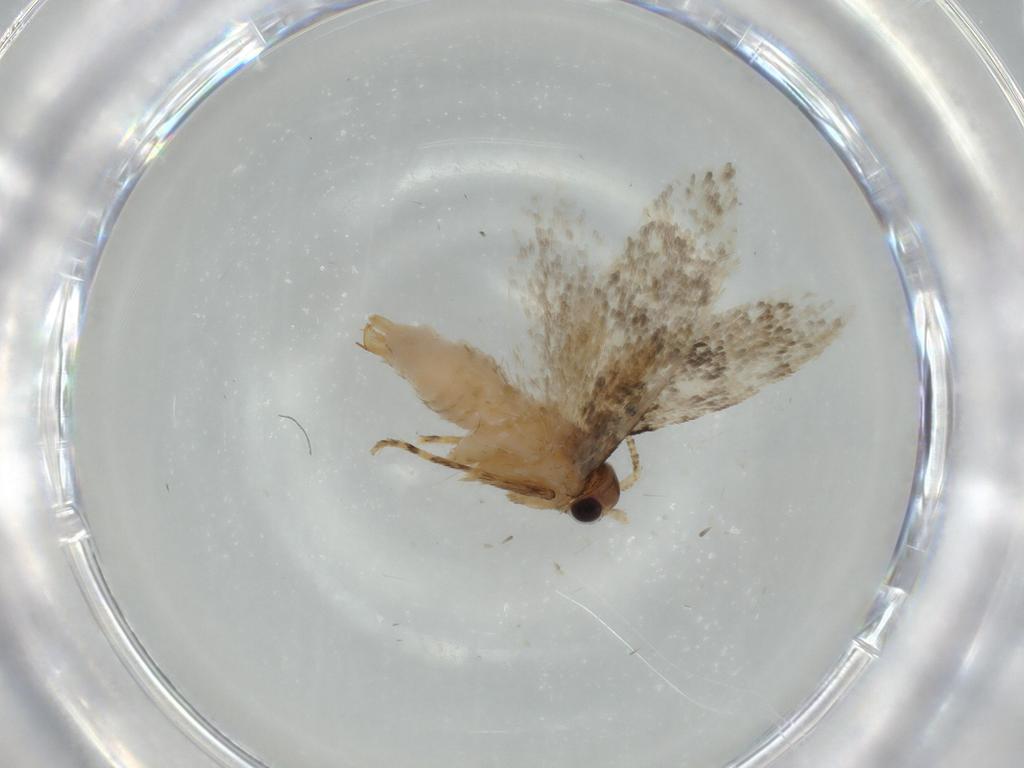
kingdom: Animalia
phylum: Arthropoda
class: Insecta
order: Lepidoptera
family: Tineidae
